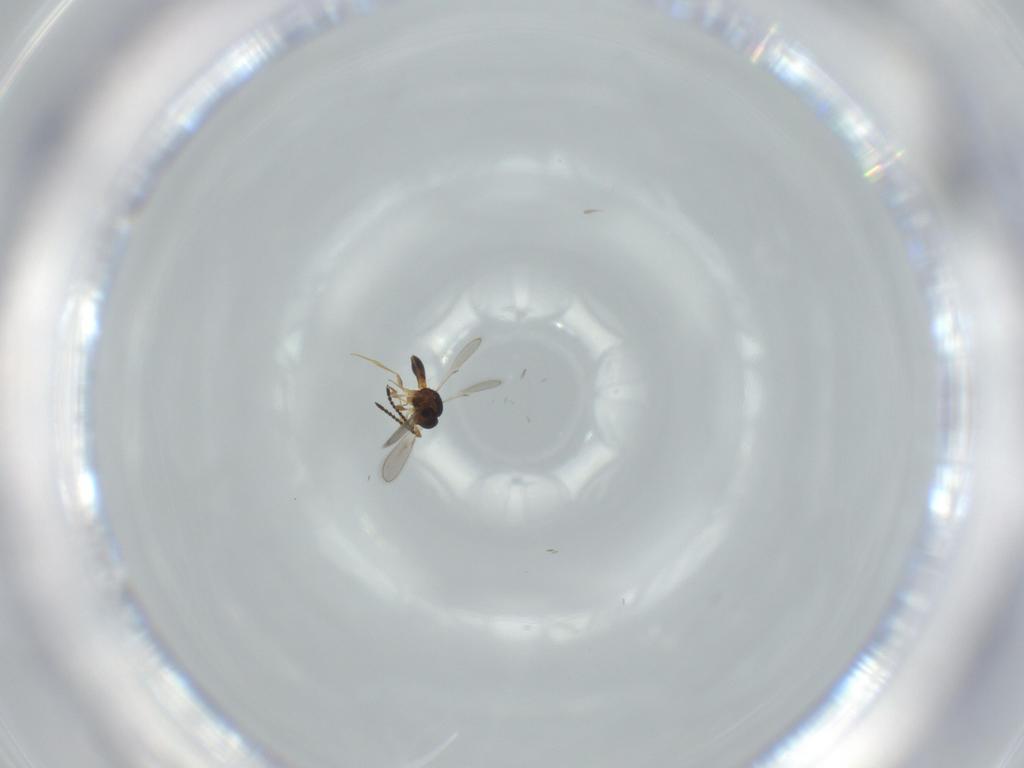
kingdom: Animalia
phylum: Arthropoda
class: Insecta
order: Hymenoptera
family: Scelionidae
